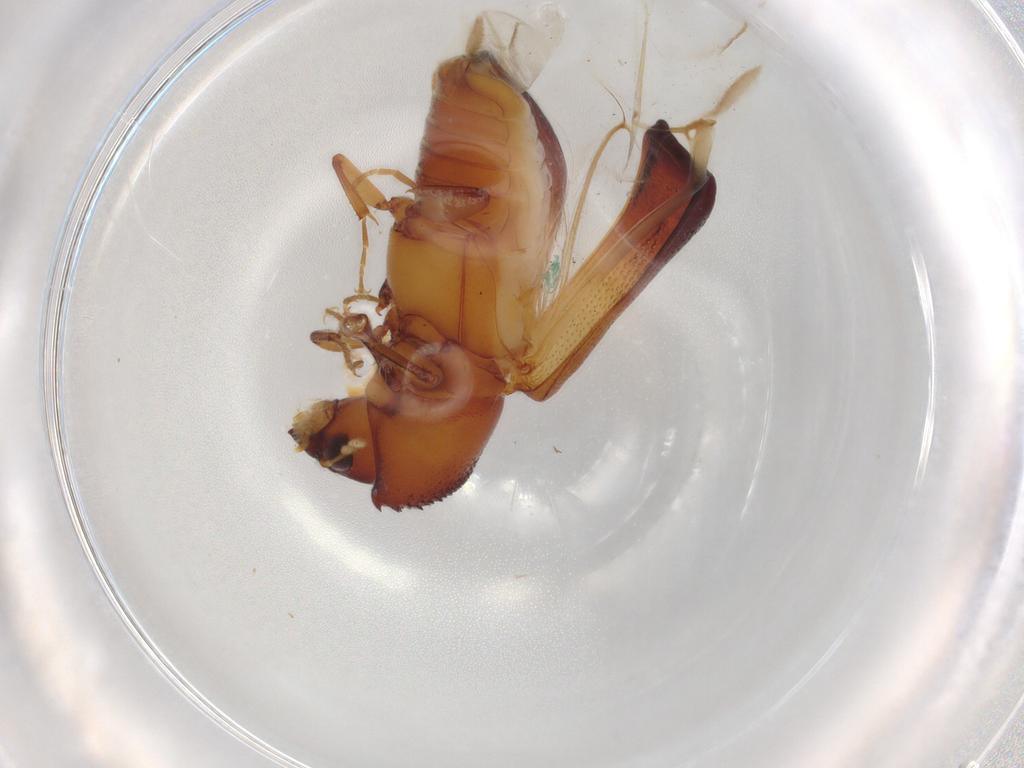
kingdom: Animalia
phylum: Arthropoda
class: Insecta
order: Coleoptera
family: Bostrichidae
